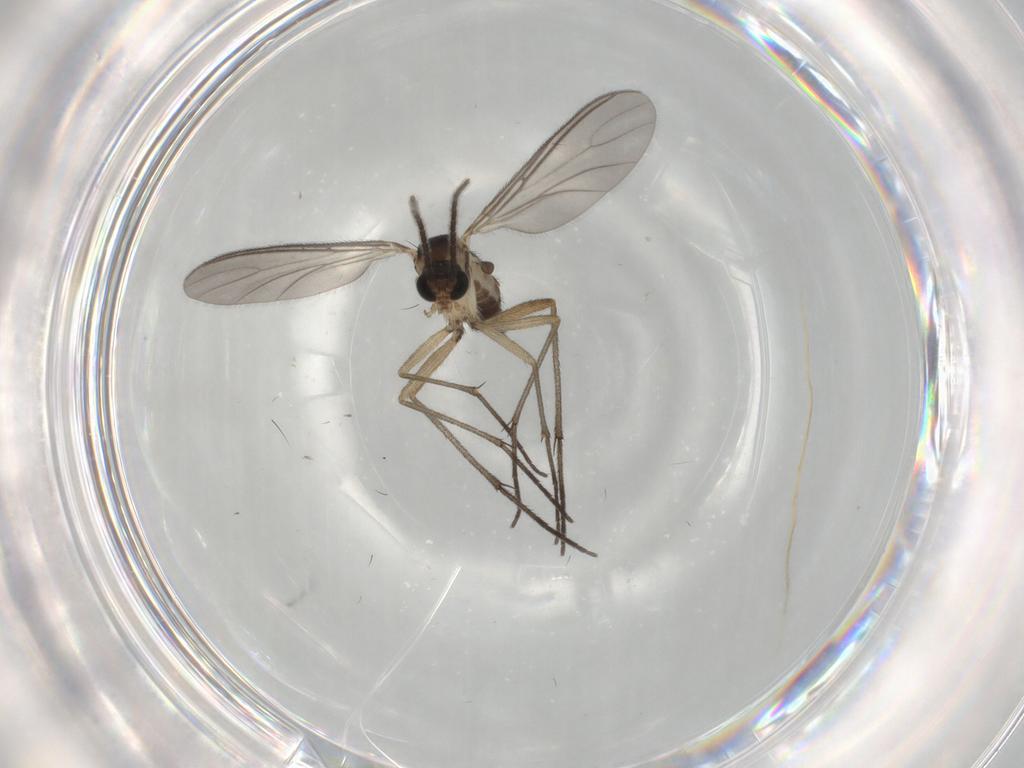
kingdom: Animalia
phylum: Arthropoda
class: Insecta
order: Diptera
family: Sciaridae
